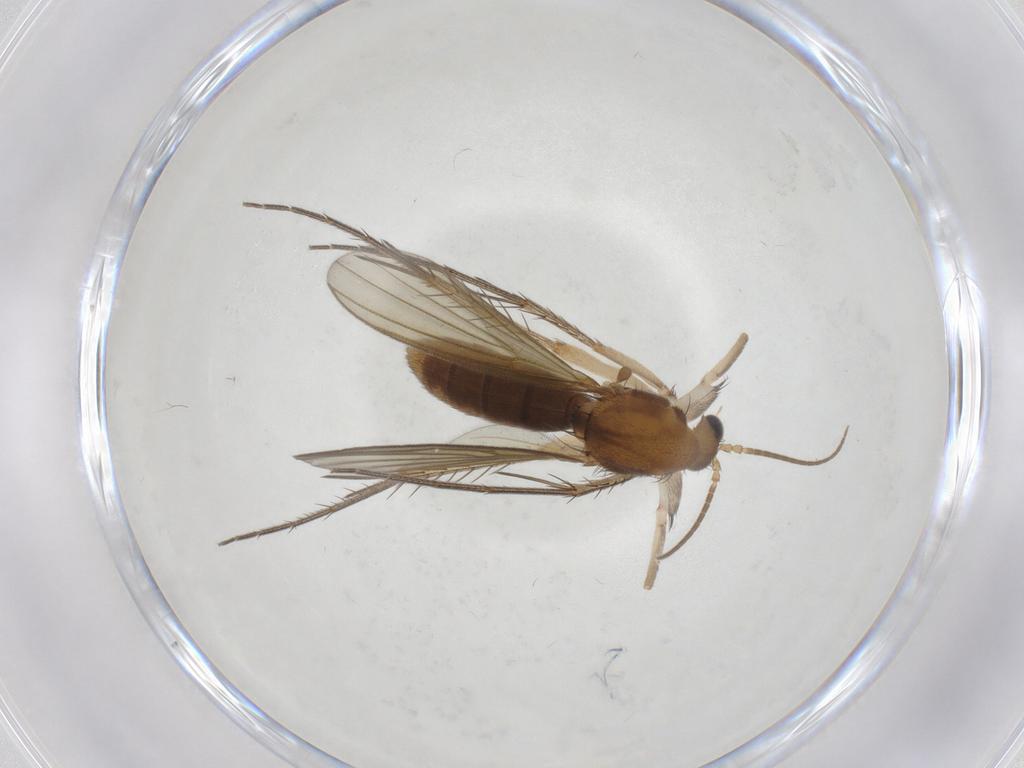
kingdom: Animalia
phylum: Arthropoda
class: Insecta
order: Diptera
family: Mycetophilidae
